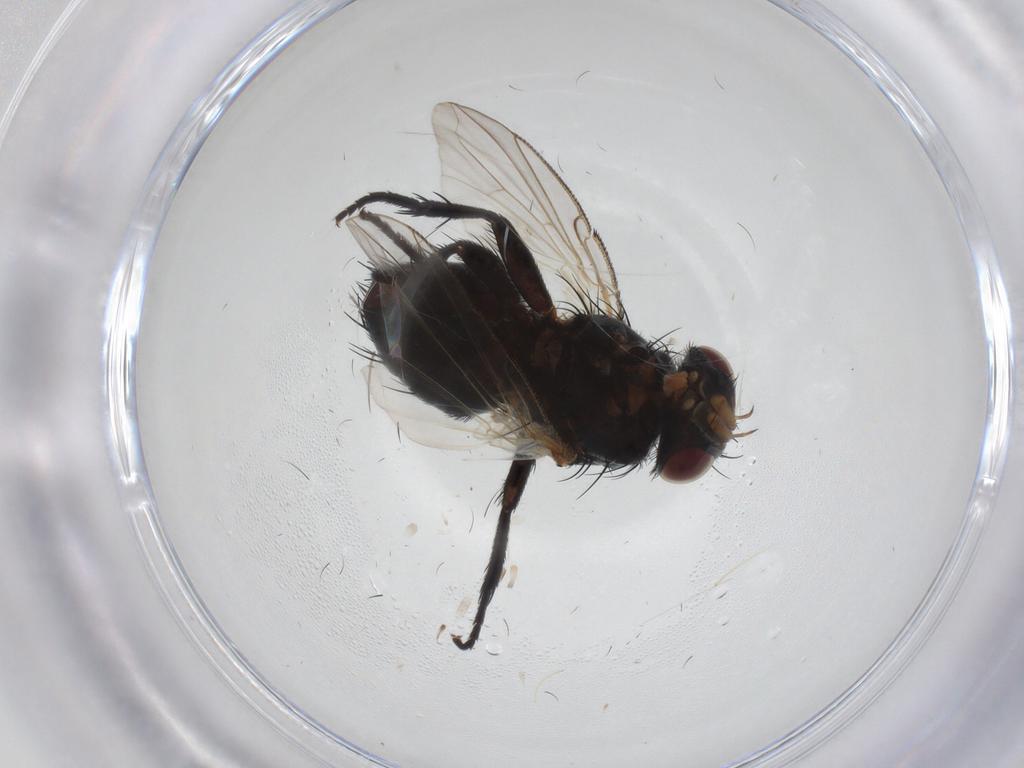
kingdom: Animalia
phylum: Arthropoda
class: Insecta
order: Diptera
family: Tachinidae
